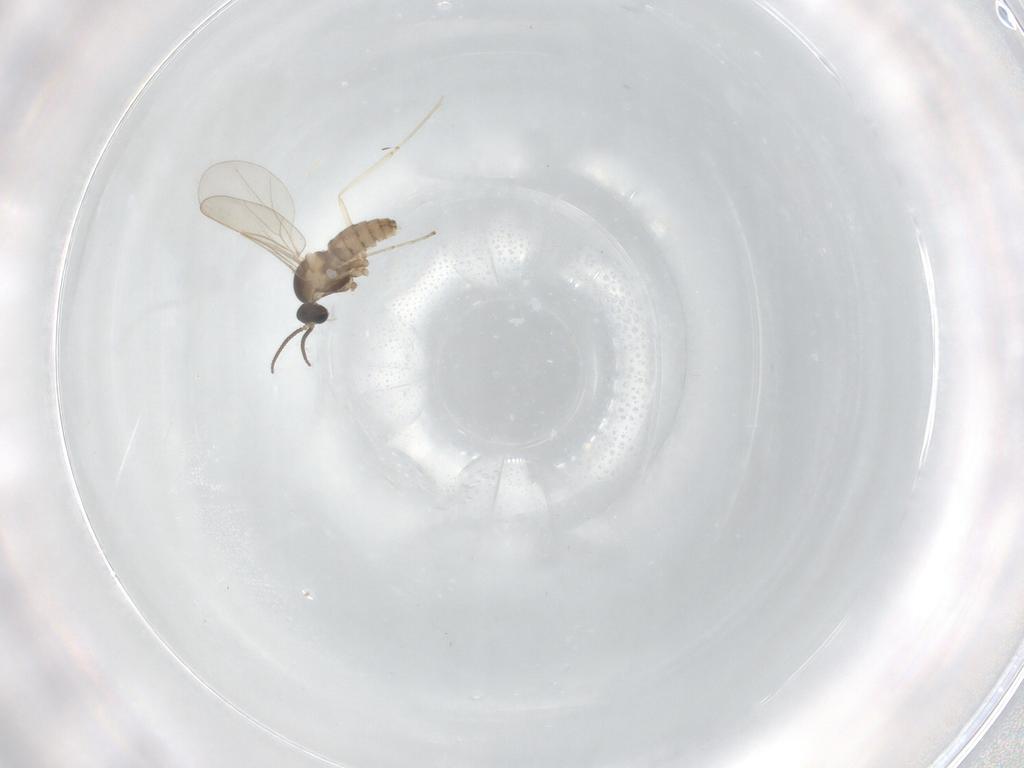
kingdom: Animalia
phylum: Arthropoda
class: Insecta
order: Diptera
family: Cecidomyiidae
